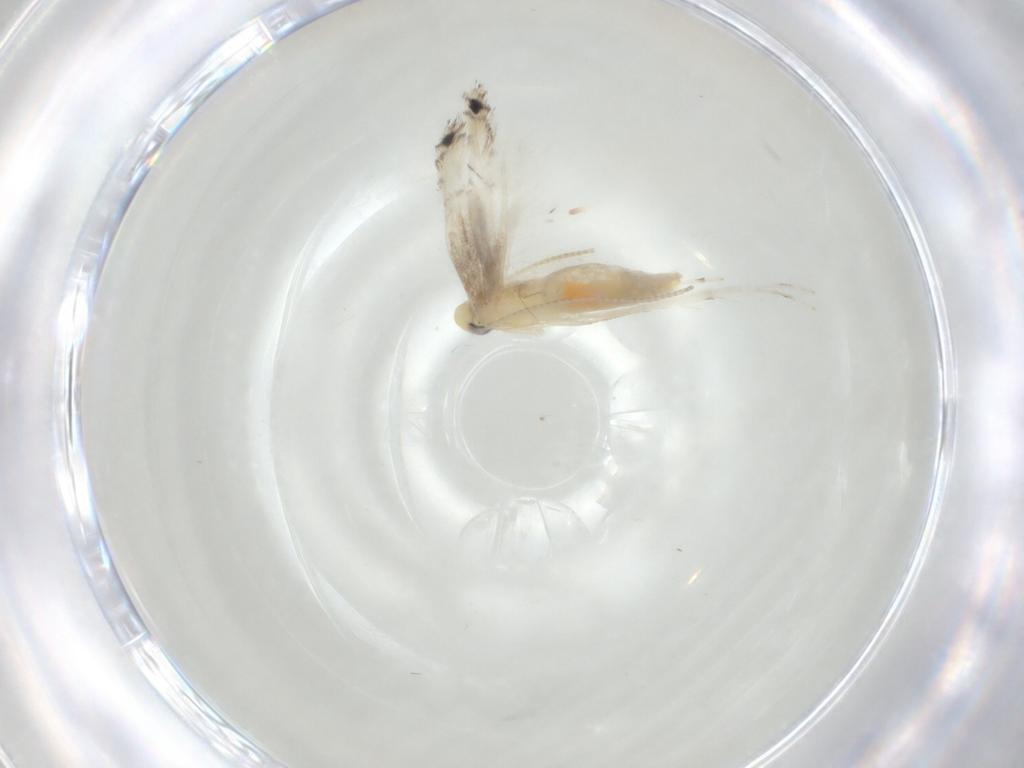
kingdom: Animalia
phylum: Arthropoda
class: Insecta
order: Lepidoptera
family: Gracillariidae
